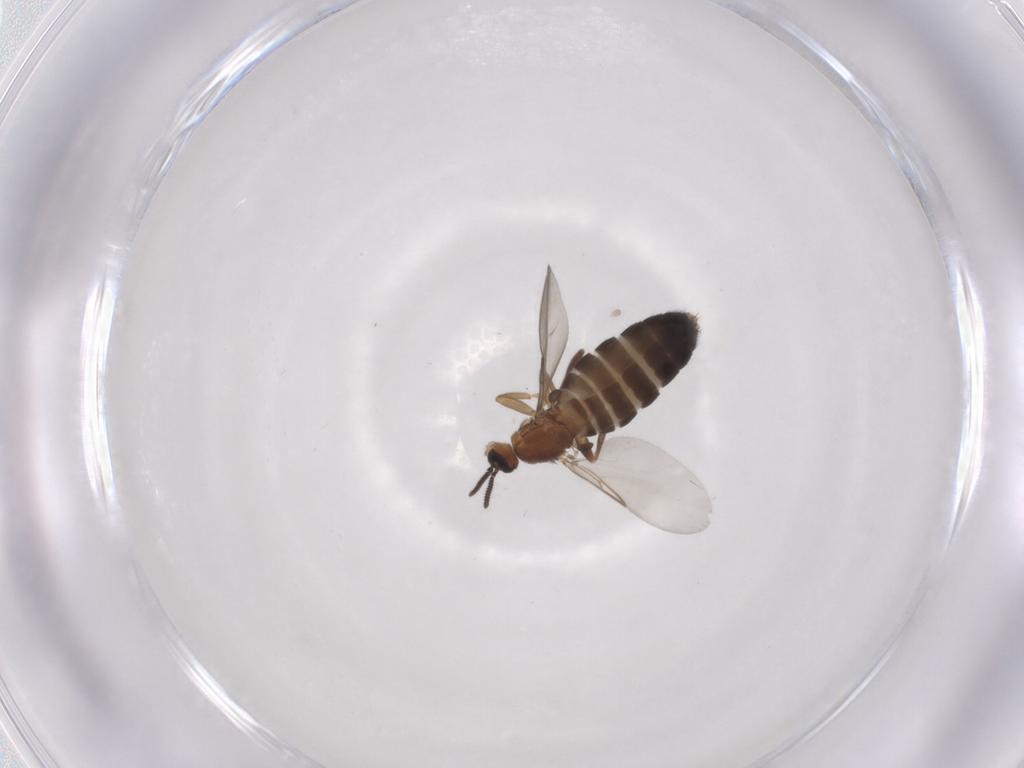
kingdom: Animalia
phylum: Arthropoda
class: Insecta
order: Diptera
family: Scatopsidae
